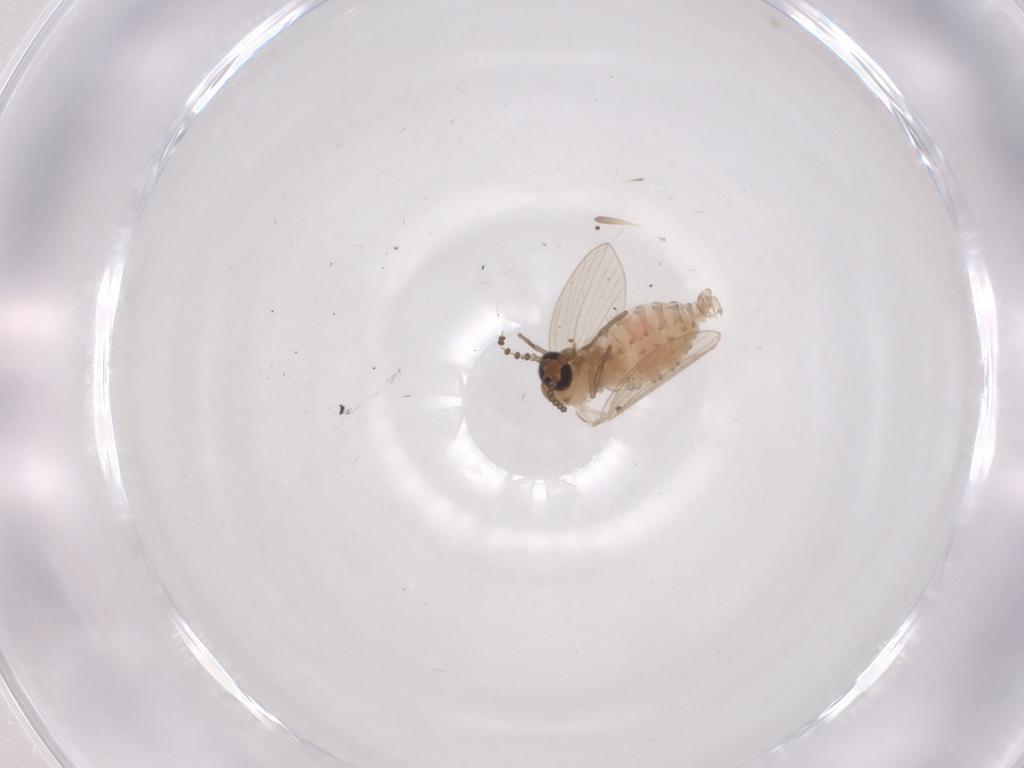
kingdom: Animalia
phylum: Arthropoda
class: Insecta
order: Diptera
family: Psychodidae
